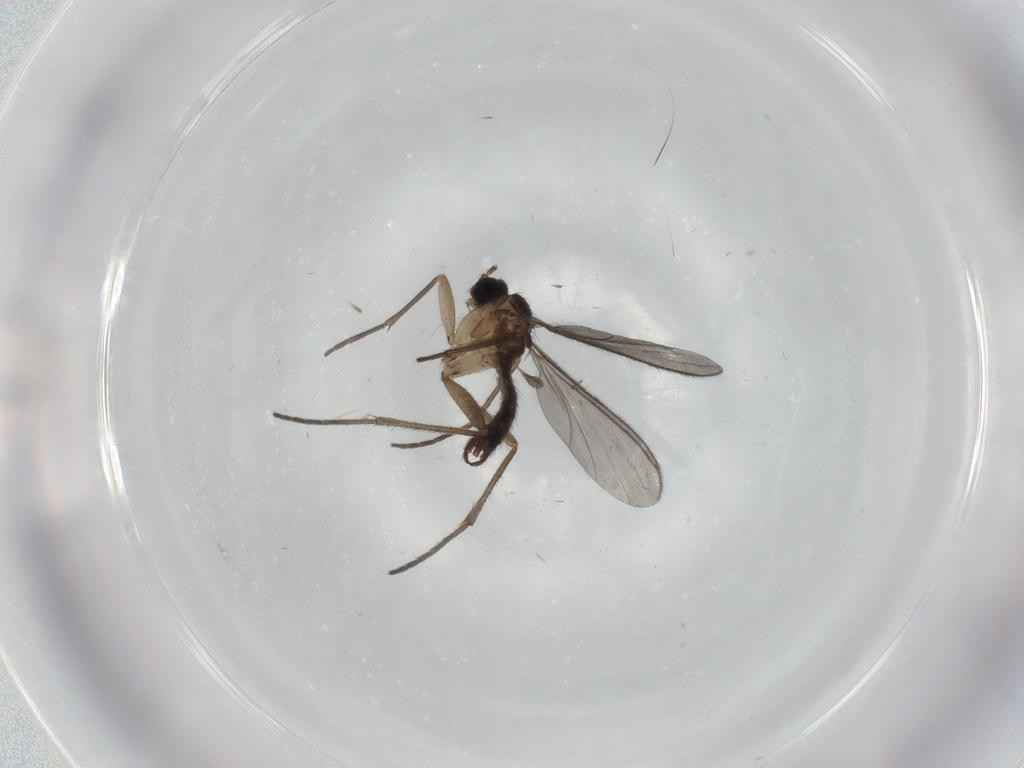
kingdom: Animalia
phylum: Arthropoda
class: Insecta
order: Diptera
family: Sciaridae
